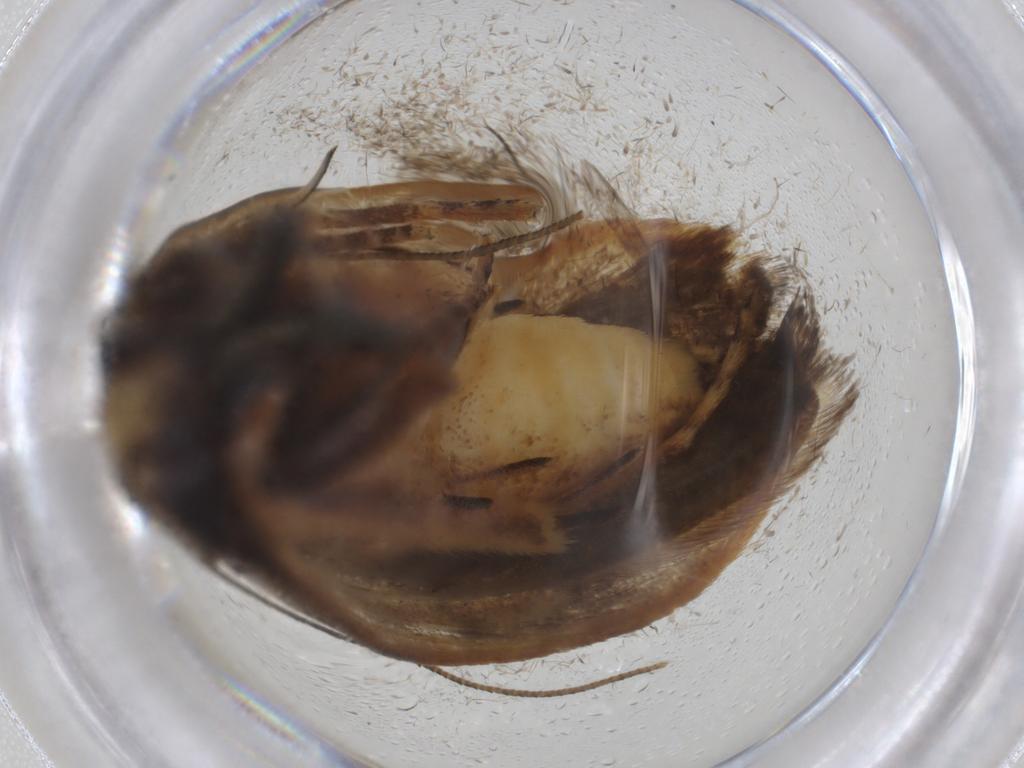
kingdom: Animalia
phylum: Arthropoda
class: Insecta
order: Lepidoptera
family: Gelechiidae
